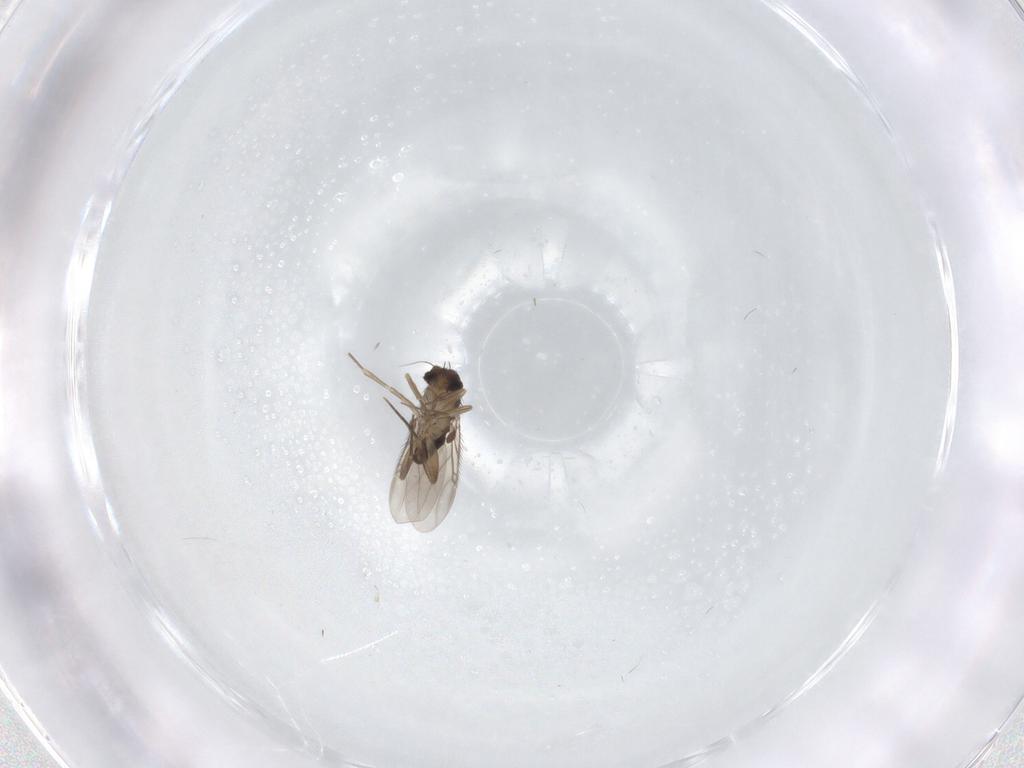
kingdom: Animalia
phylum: Arthropoda
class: Insecta
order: Diptera
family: Phoridae
